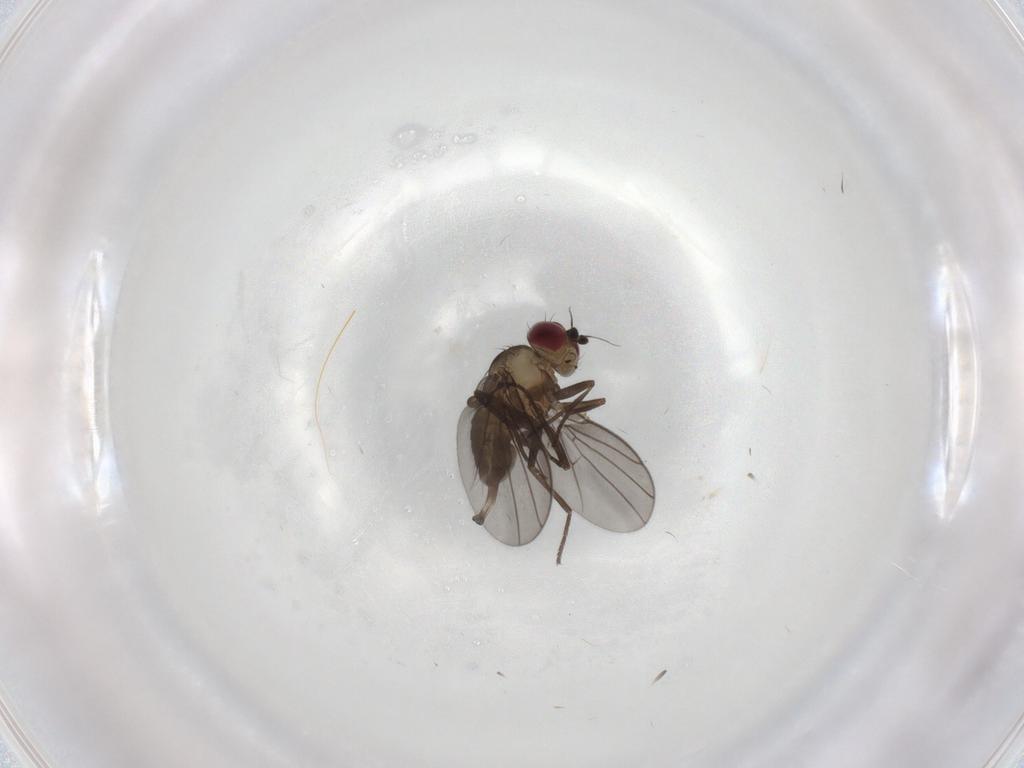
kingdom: Animalia
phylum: Arthropoda
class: Insecta
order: Diptera
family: Cecidomyiidae
